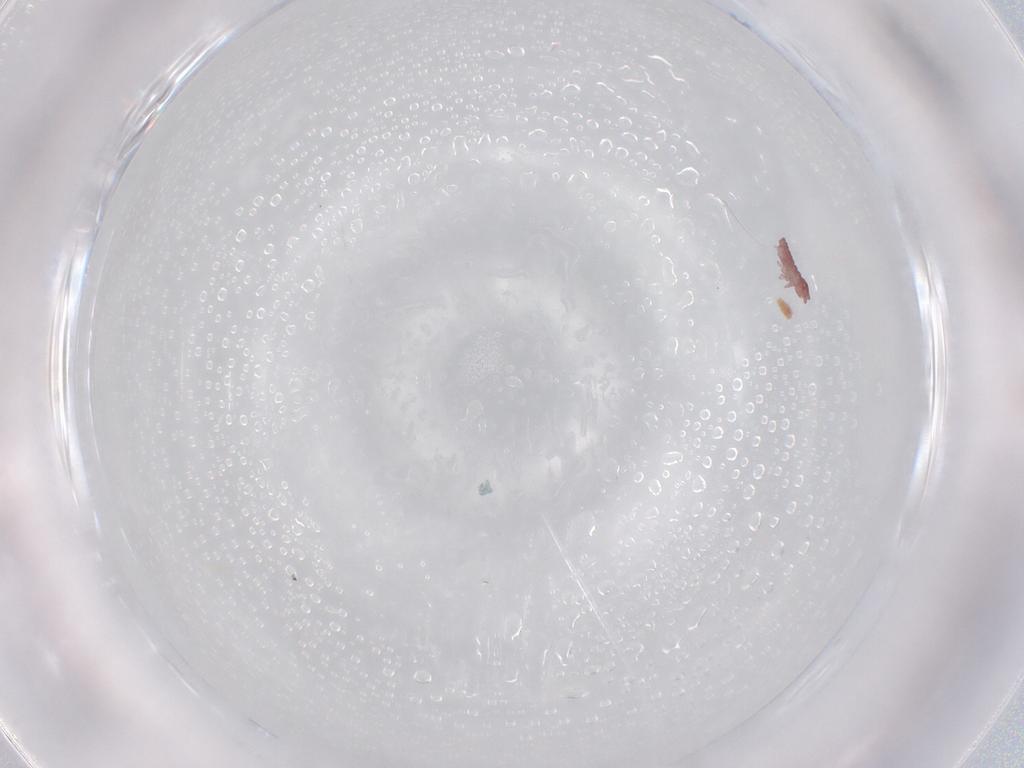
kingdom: Animalia
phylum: Arthropoda
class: Collembola
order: Poduromorpha
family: Hypogastruridae
